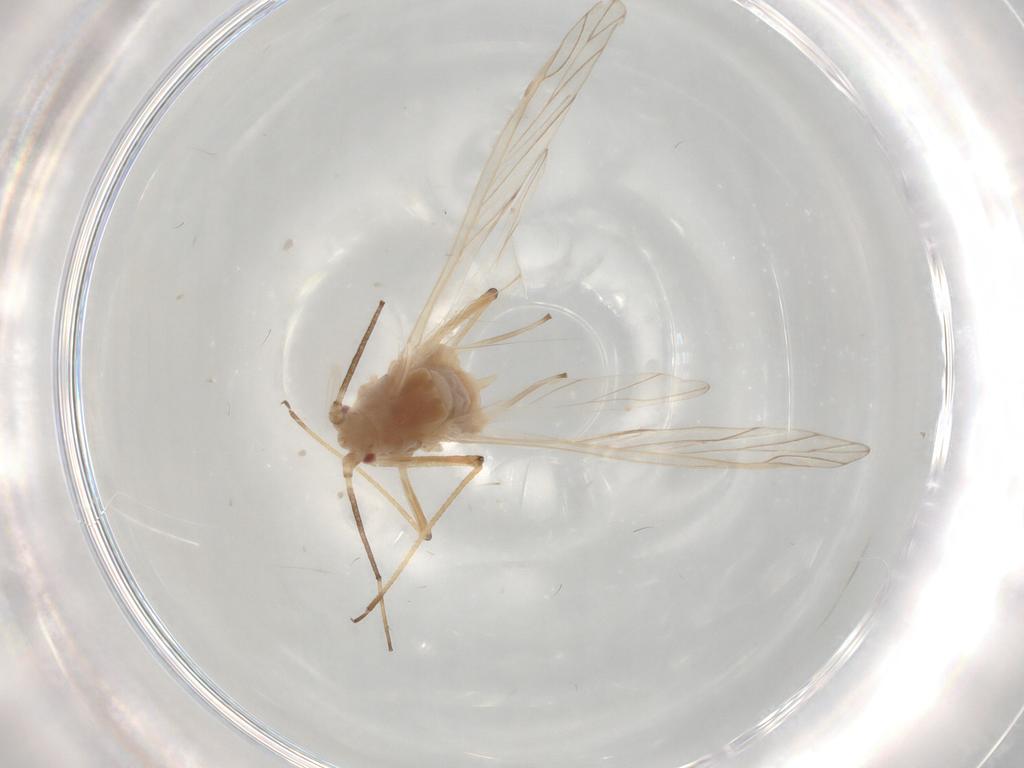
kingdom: Animalia
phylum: Arthropoda
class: Insecta
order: Hemiptera
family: Aphididae
